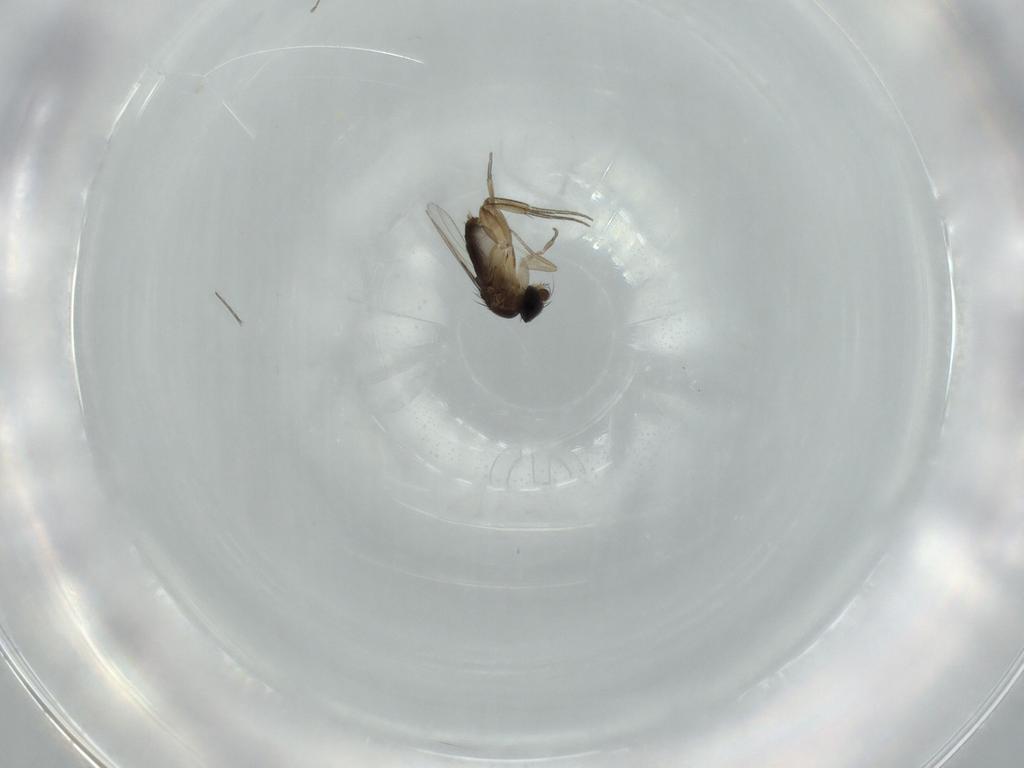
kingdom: Animalia
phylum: Arthropoda
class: Insecta
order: Diptera
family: Phoridae
